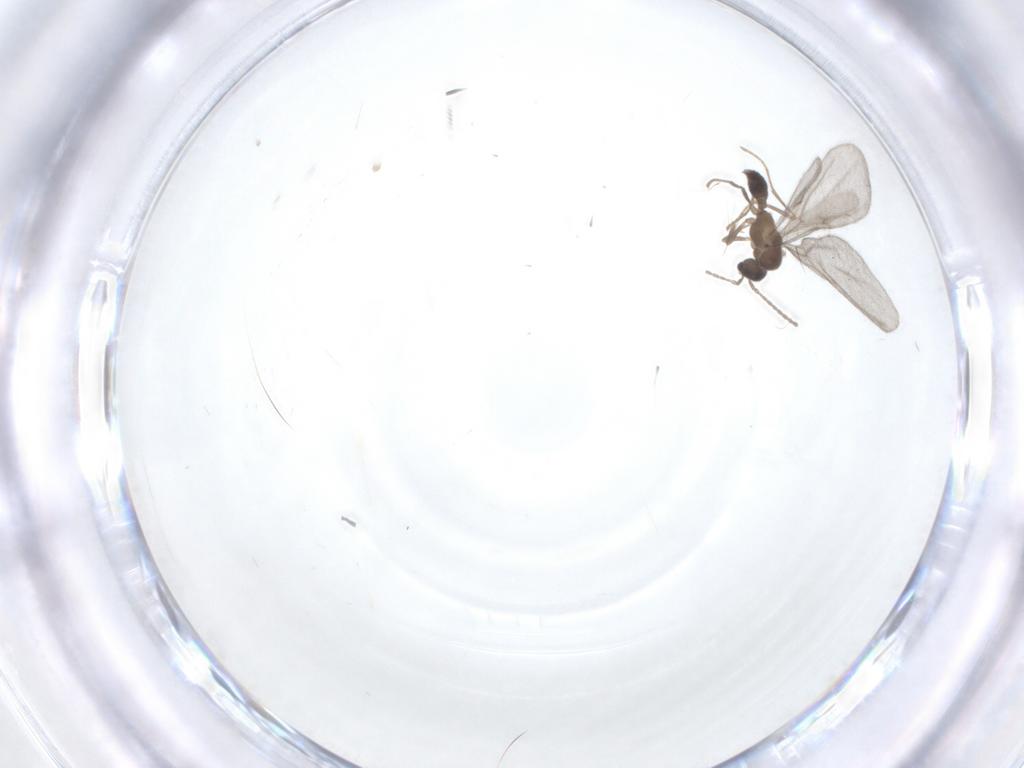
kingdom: Animalia
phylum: Arthropoda
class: Insecta
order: Hymenoptera
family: Formicidae
